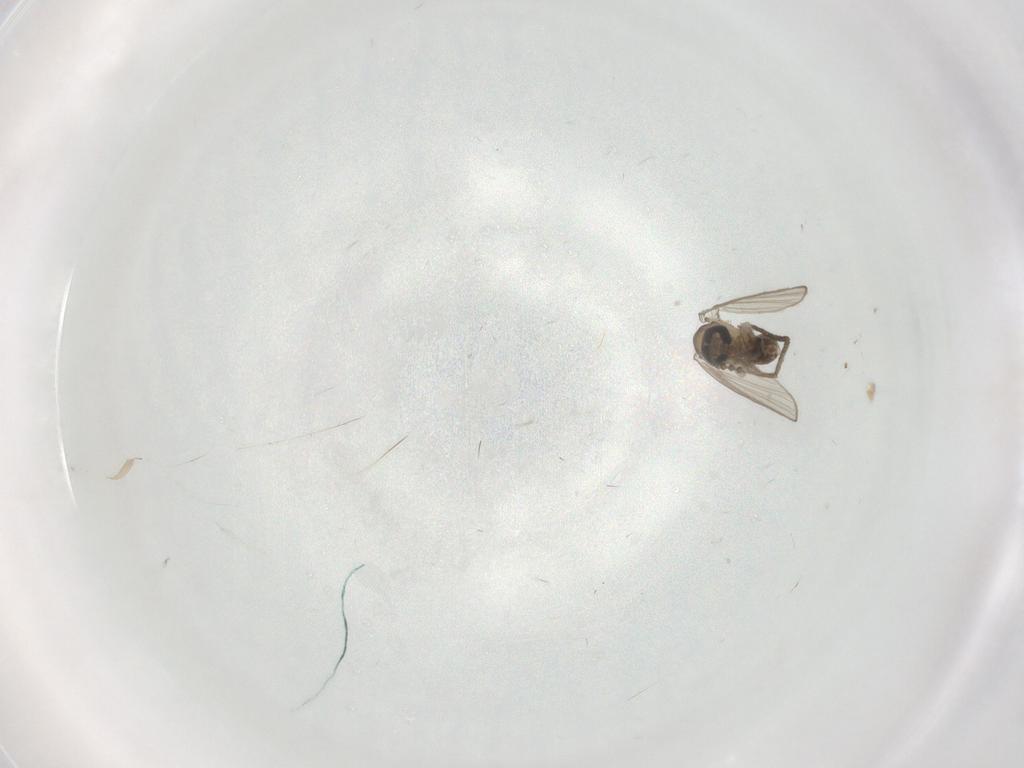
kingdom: Animalia
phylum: Arthropoda
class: Insecta
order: Diptera
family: Psychodidae
